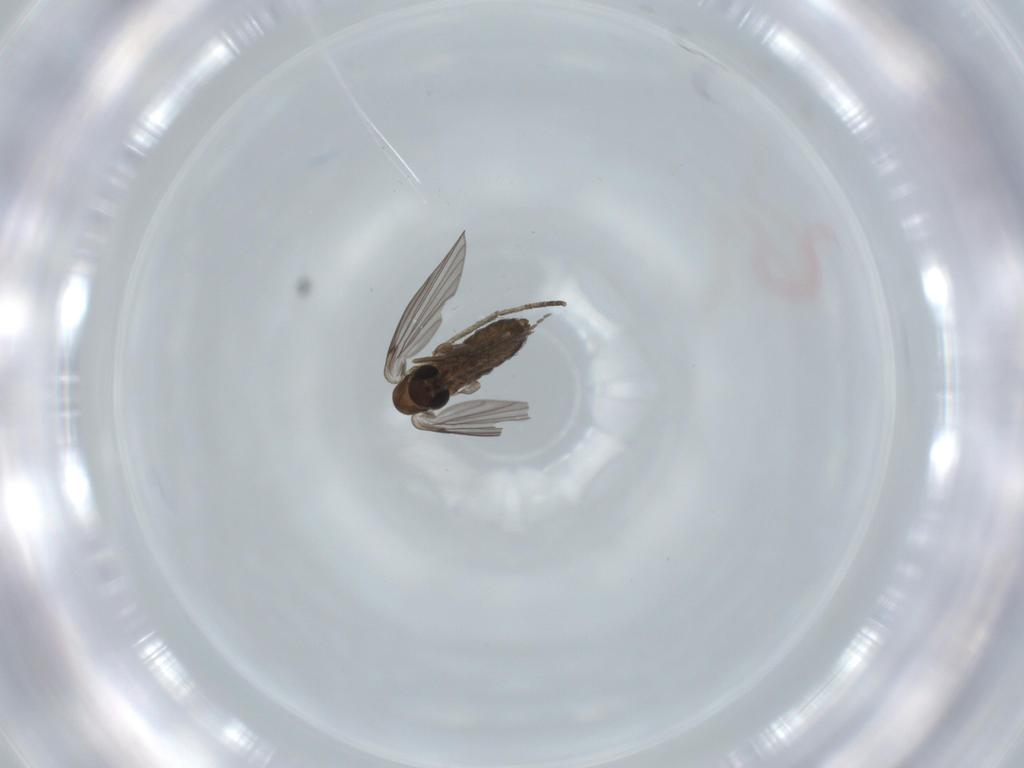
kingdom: Animalia
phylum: Arthropoda
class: Insecta
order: Diptera
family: Psychodidae
